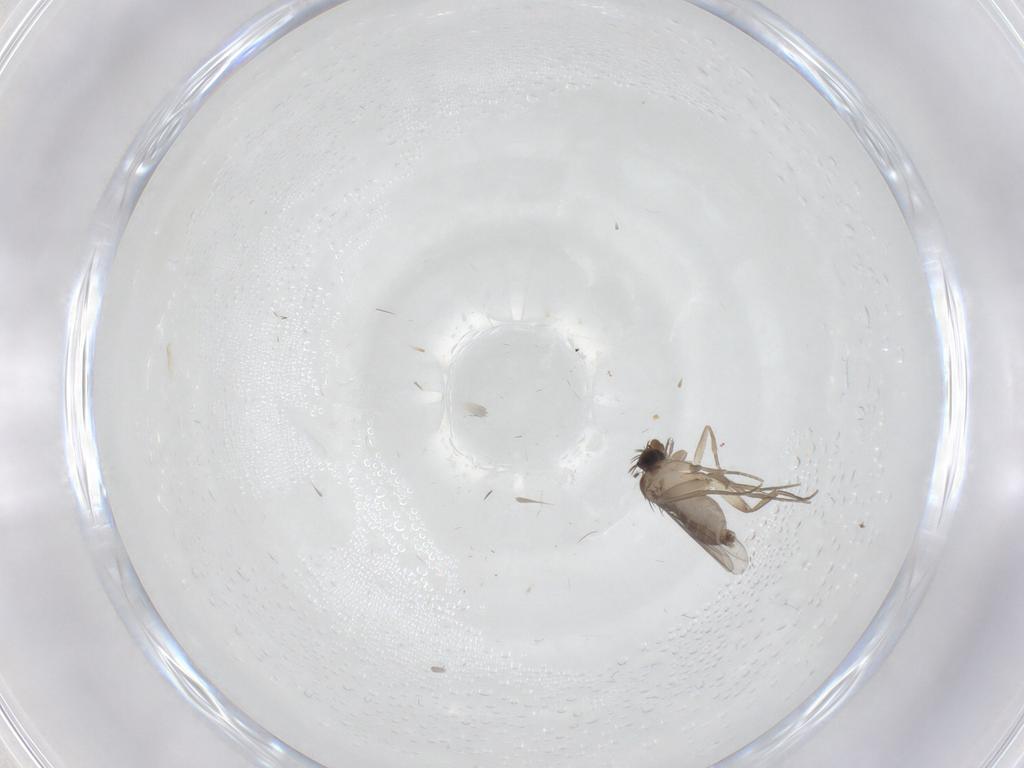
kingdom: Animalia
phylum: Arthropoda
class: Insecta
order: Diptera
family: Phoridae
